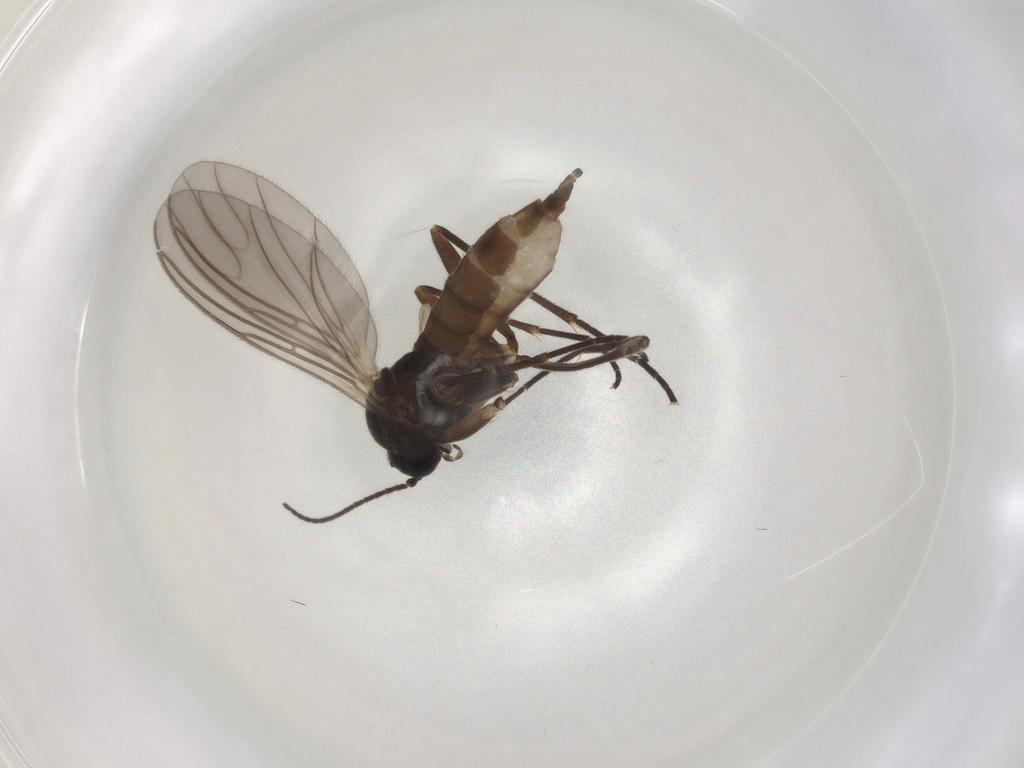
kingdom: Animalia
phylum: Arthropoda
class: Insecta
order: Diptera
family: Sciaridae
